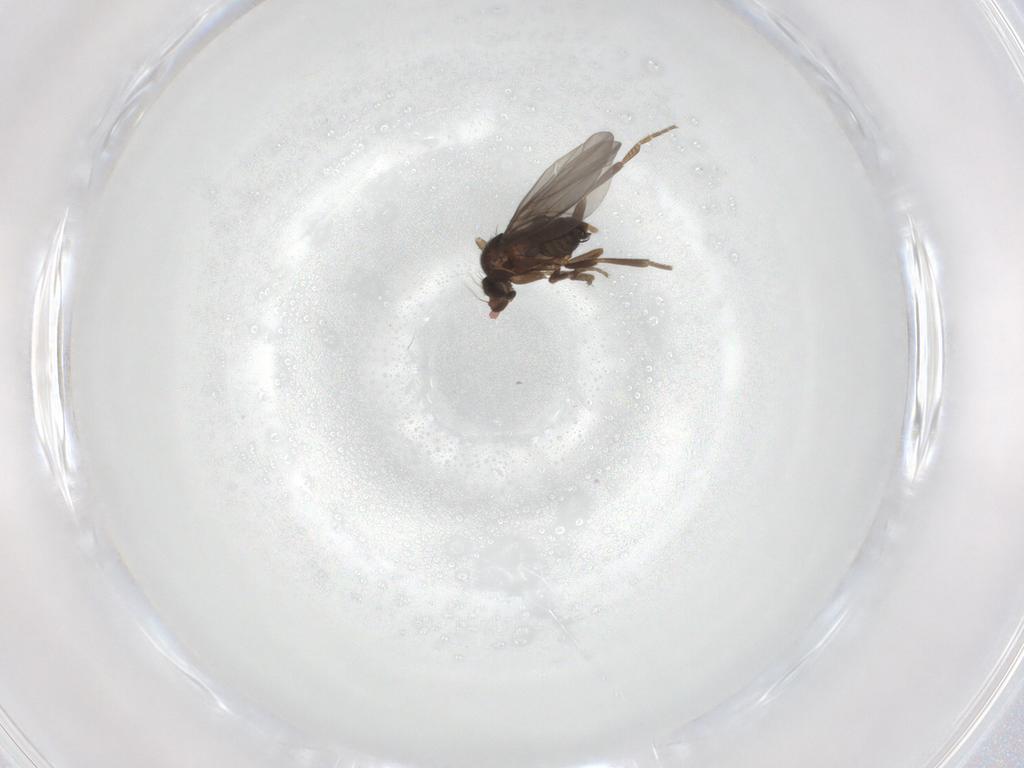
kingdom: Animalia
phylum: Arthropoda
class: Insecta
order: Diptera
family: Phoridae
